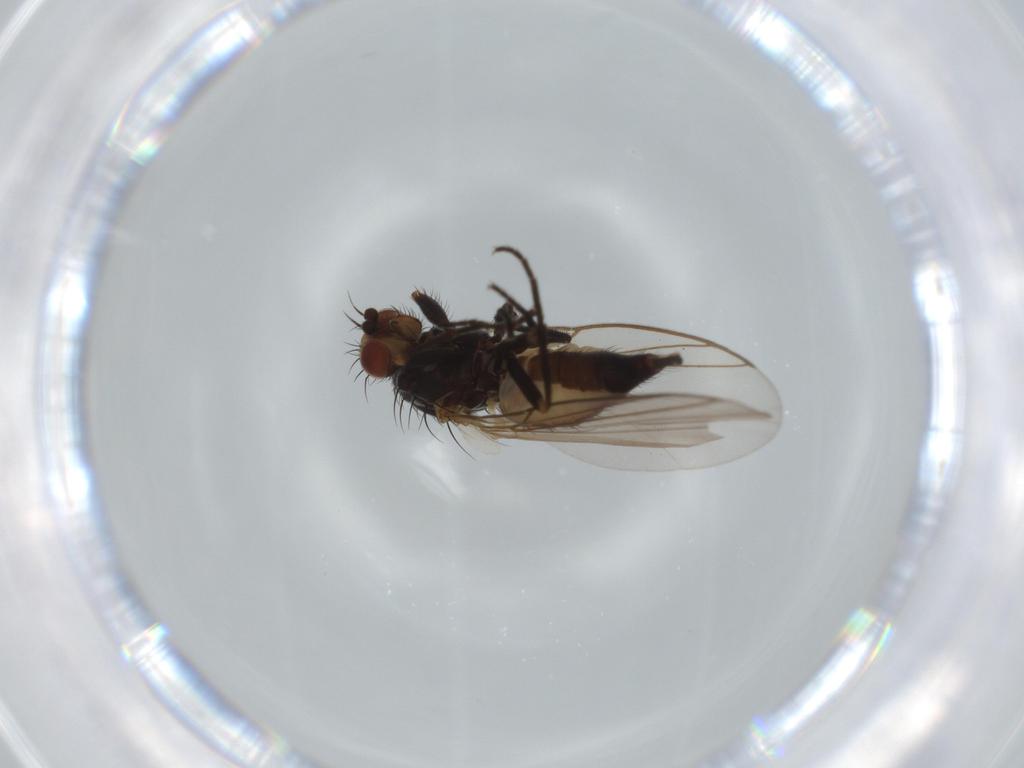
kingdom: Animalia
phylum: Arthropoda
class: Insecta
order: Diptera
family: Agromyzidae
